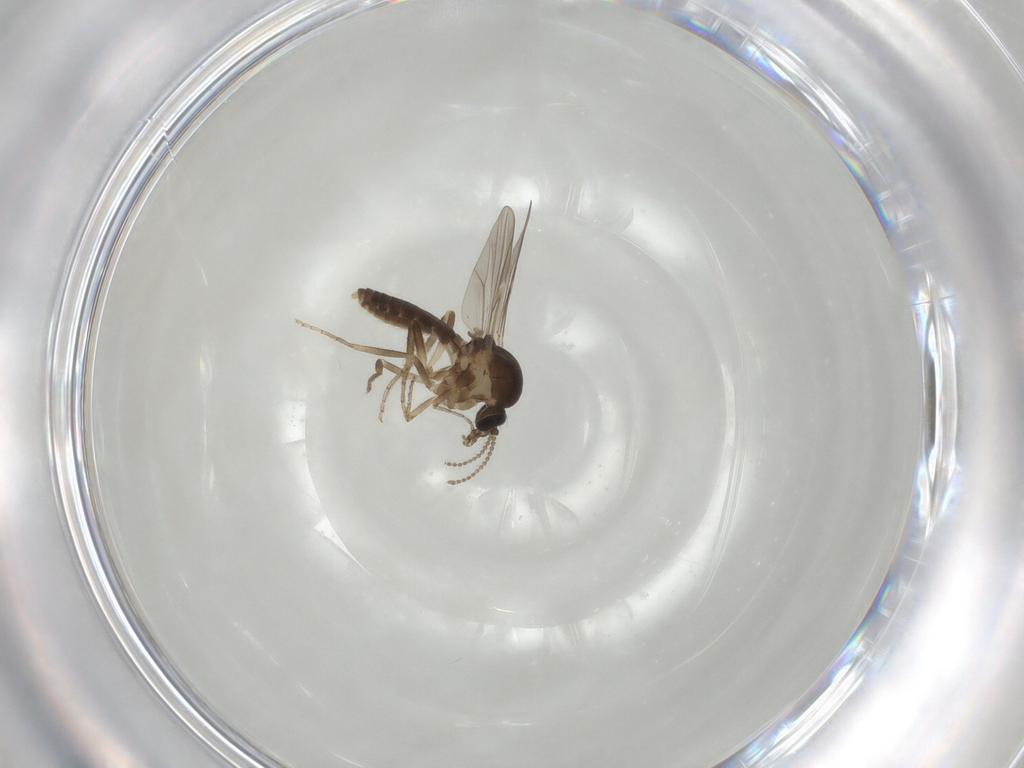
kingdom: Animalia
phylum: Arthropoda
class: Insecta
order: Diptera
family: Ceratopogonidae
